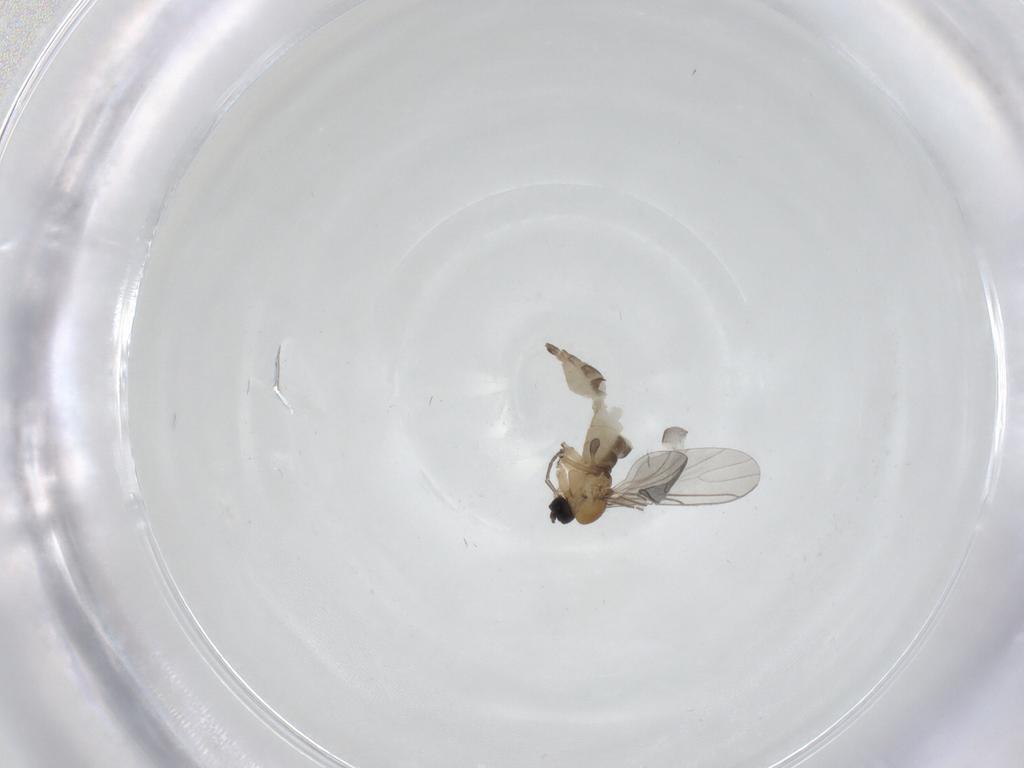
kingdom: Animalia
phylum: Arthropoda
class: Insecta
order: Diptera
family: Sciaridae
